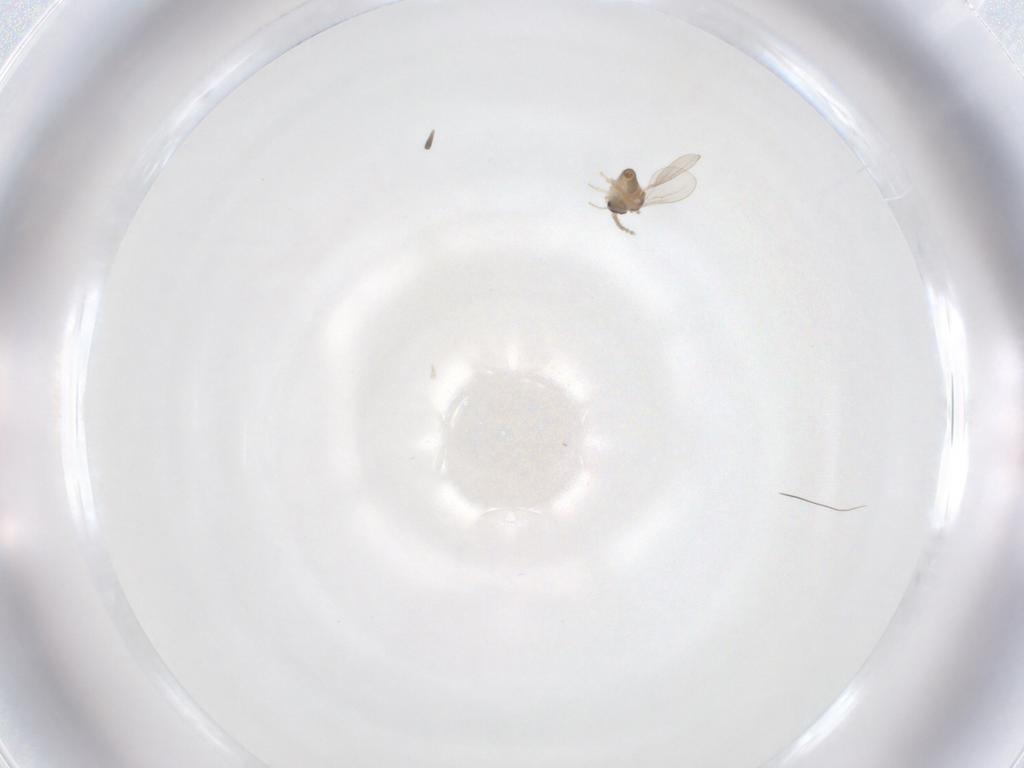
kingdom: Animalia
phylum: Arthropoda
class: Insecta
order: Diptera
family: Cecidomyiidae
